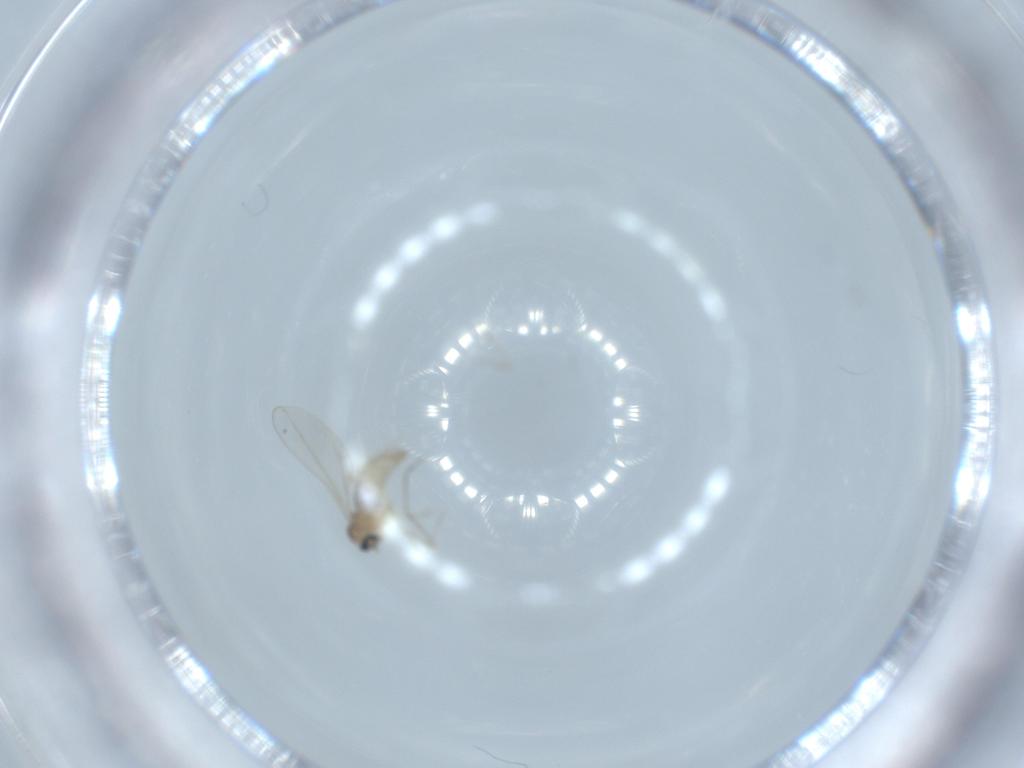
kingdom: Animalia
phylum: Arthropoda
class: Insecta
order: Diptera
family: Cecidomyiidae
